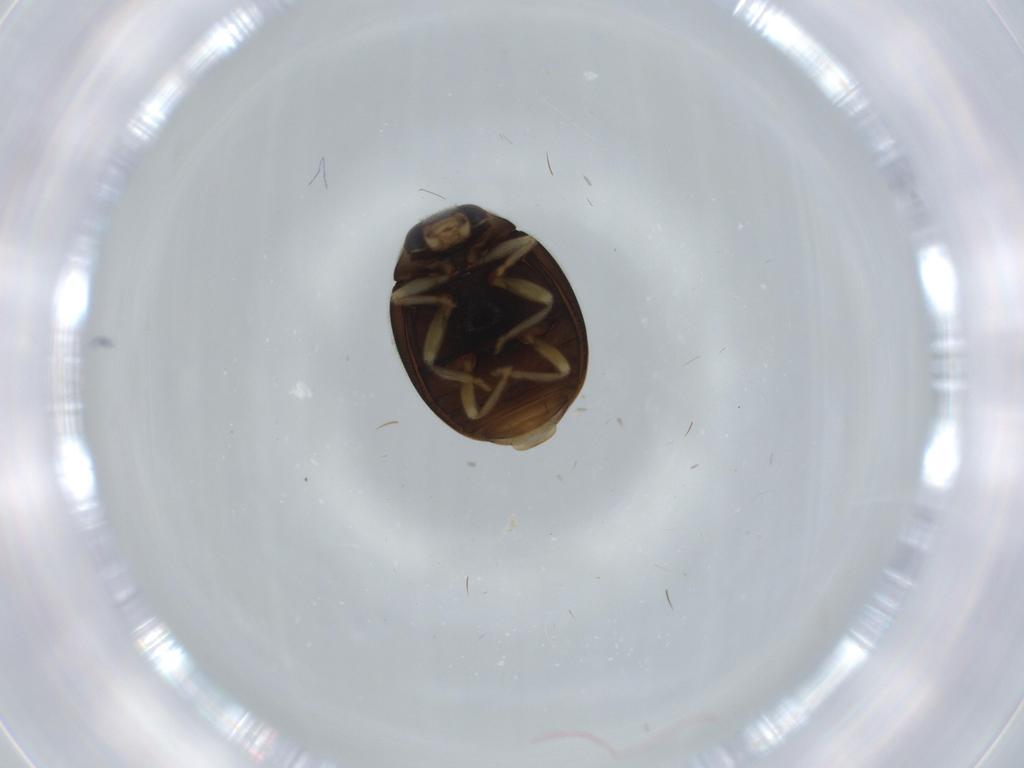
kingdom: Animalia
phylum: Arthropoda
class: Insecta
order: Coleoptera
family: Coccinellidae
